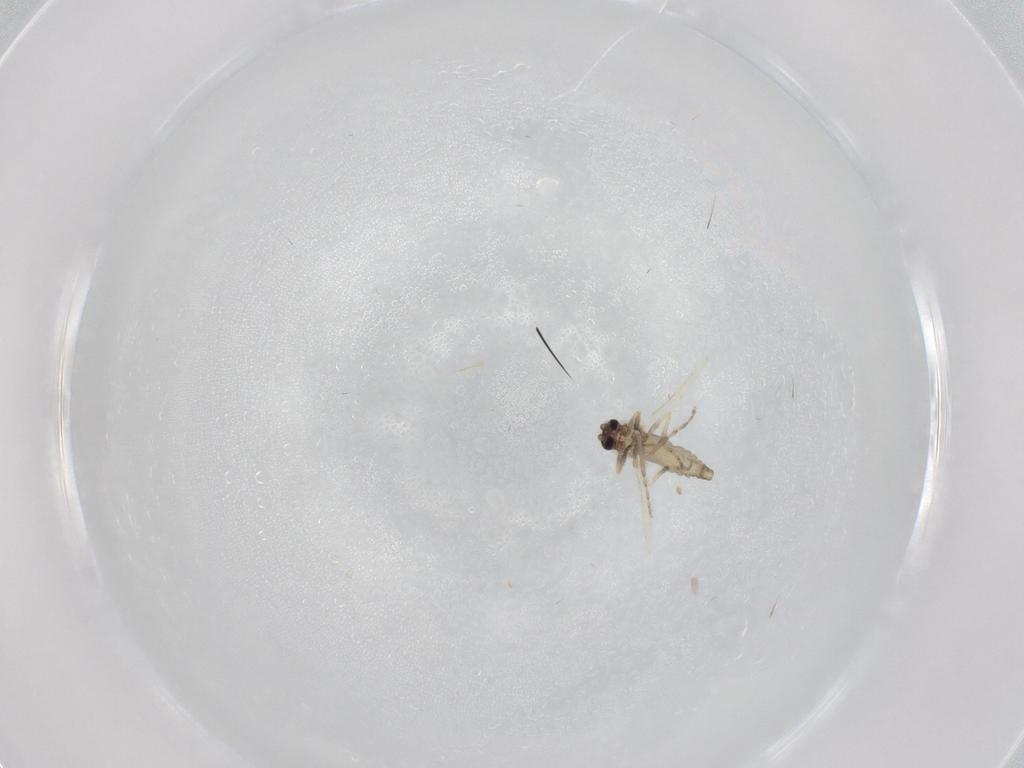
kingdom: Animalia
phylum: Arthropoda
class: Insecta
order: Diptera
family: Ceratopogonidae
